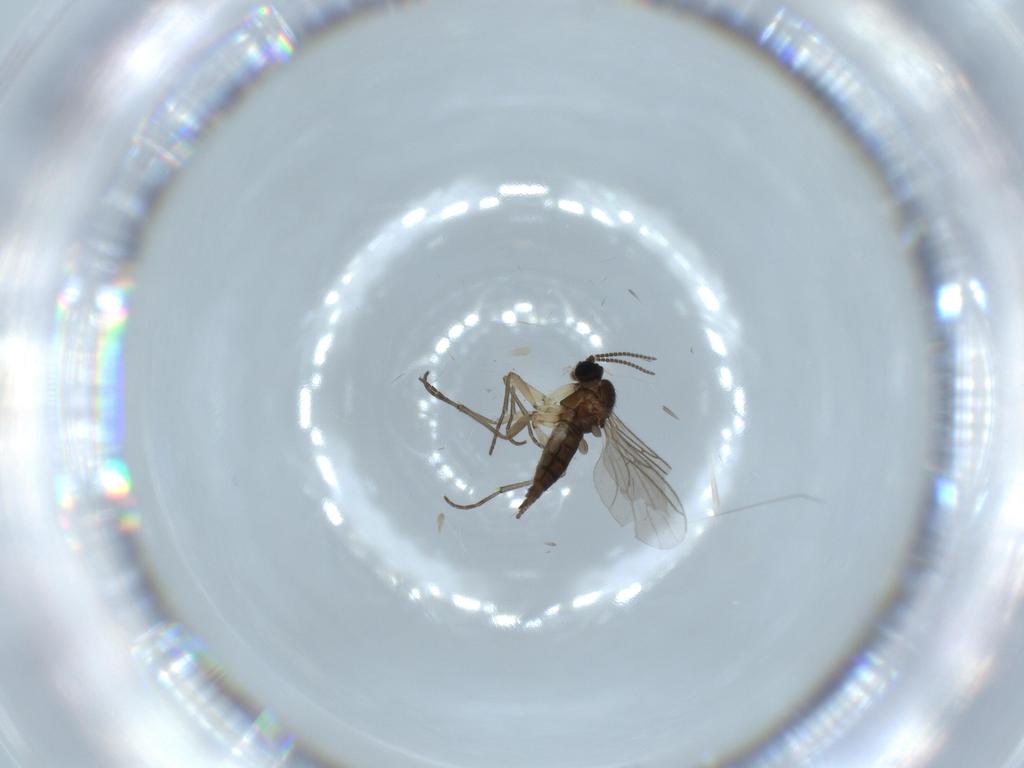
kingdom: Animalia
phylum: Arthropoda
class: Insecta
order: Diptera
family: Sciaridae
